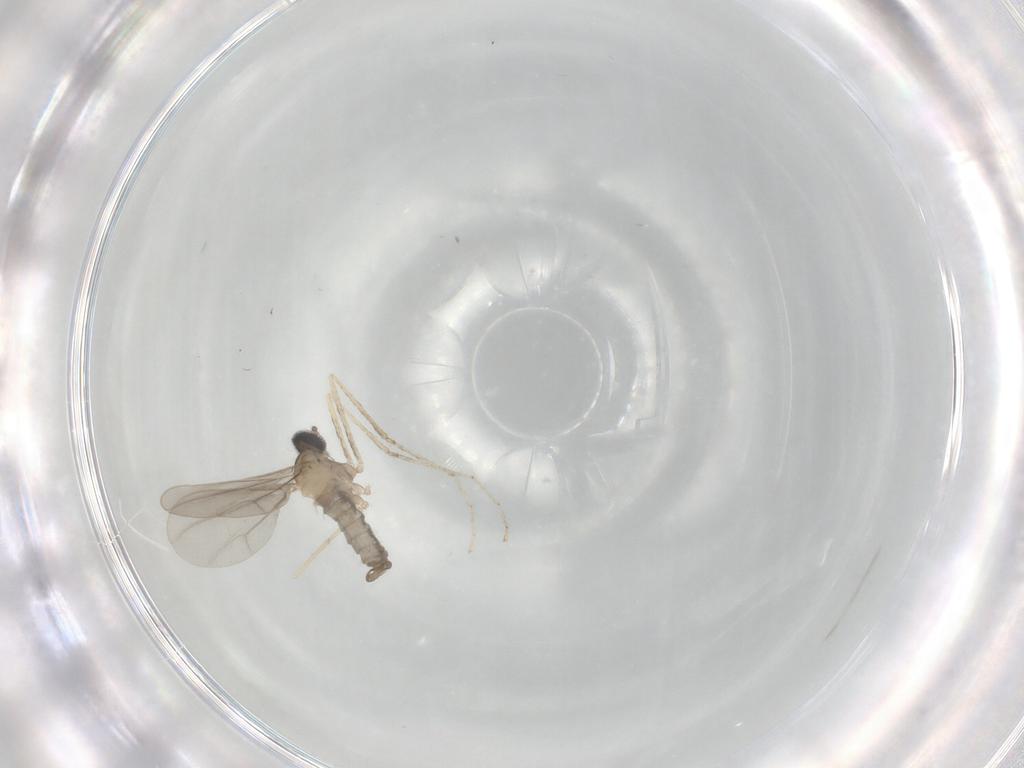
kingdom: Animalia
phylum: Arthropoda
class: Insecta
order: Diptera
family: Cecidomyiidae
